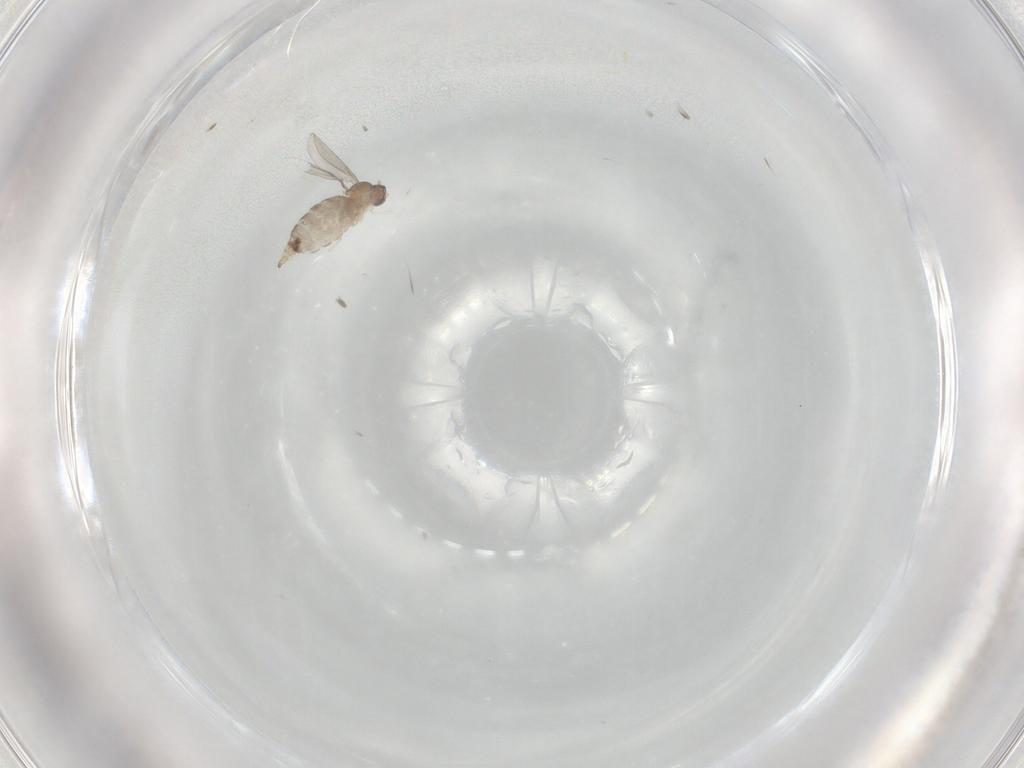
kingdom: Animalia
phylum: Arthropoda
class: Insecta
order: Diptera
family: Cecidomyiidae
